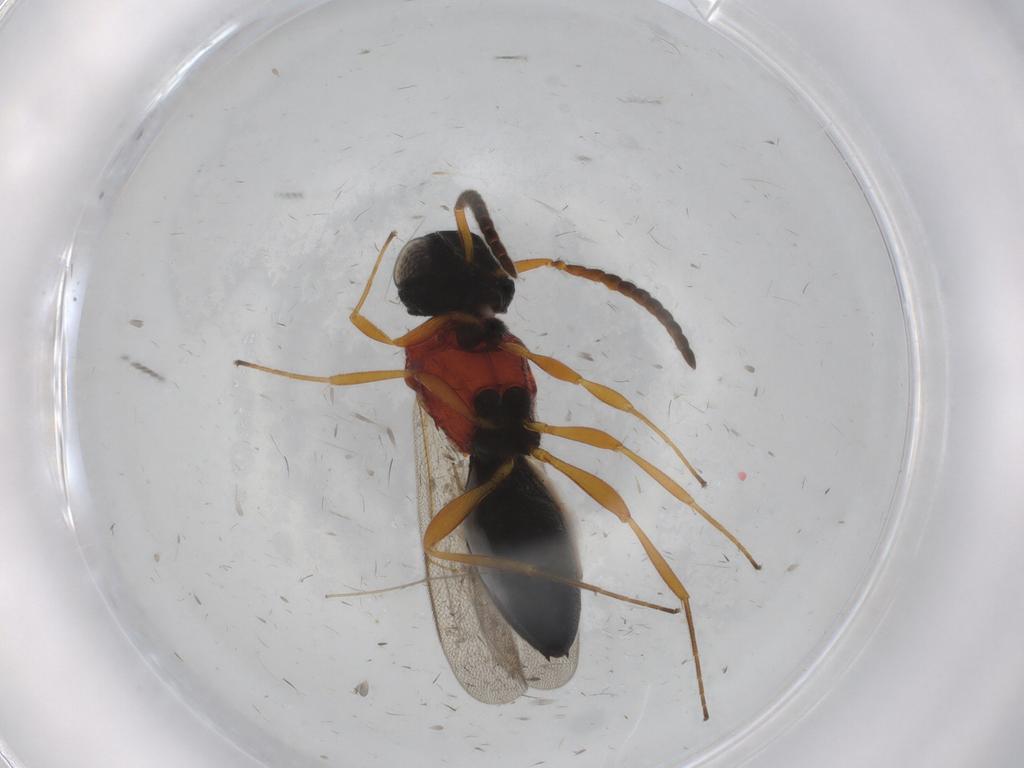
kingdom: Animalia
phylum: Arthropoda
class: Insecta
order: Hymenoptera
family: Scelionidae
